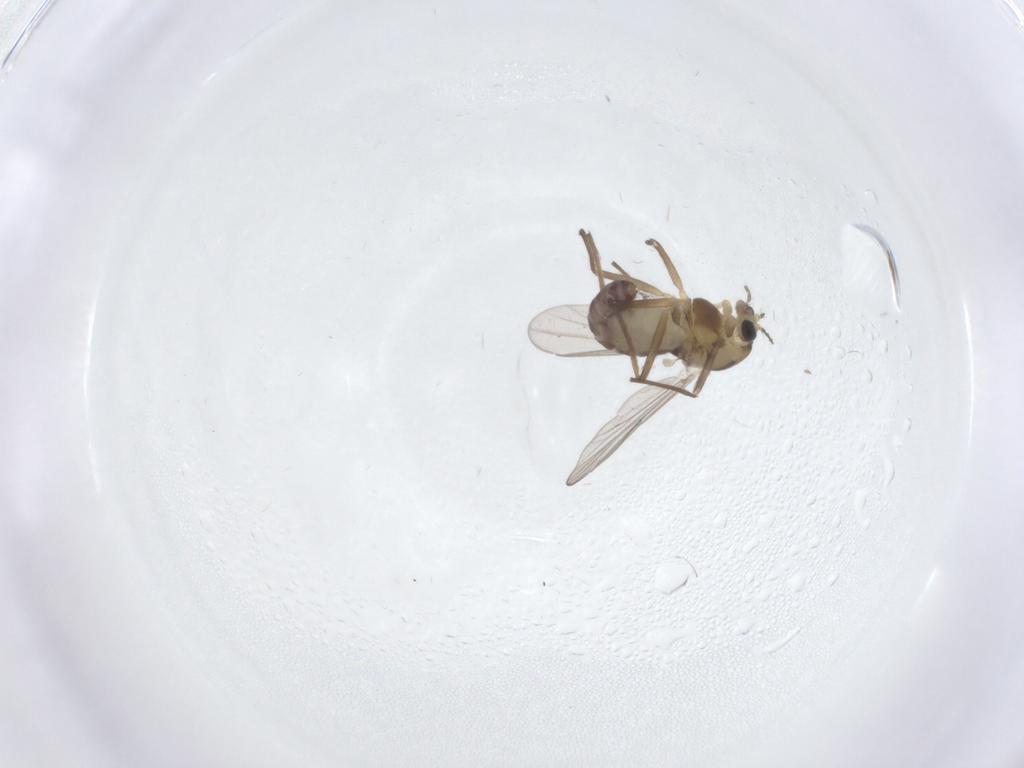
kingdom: Animalia
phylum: Arthropoda
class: Insecta
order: Diptera
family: Chironomidae
